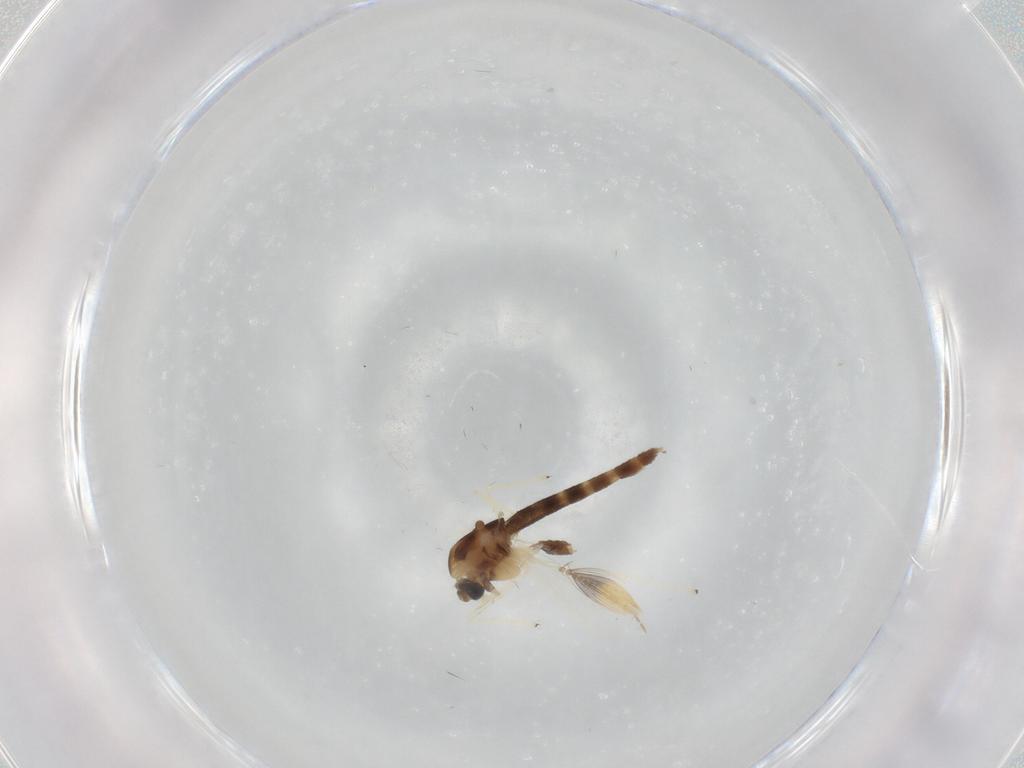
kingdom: Animalia
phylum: Arthropoda
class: Insecta
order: Diptera
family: Chironomidae
